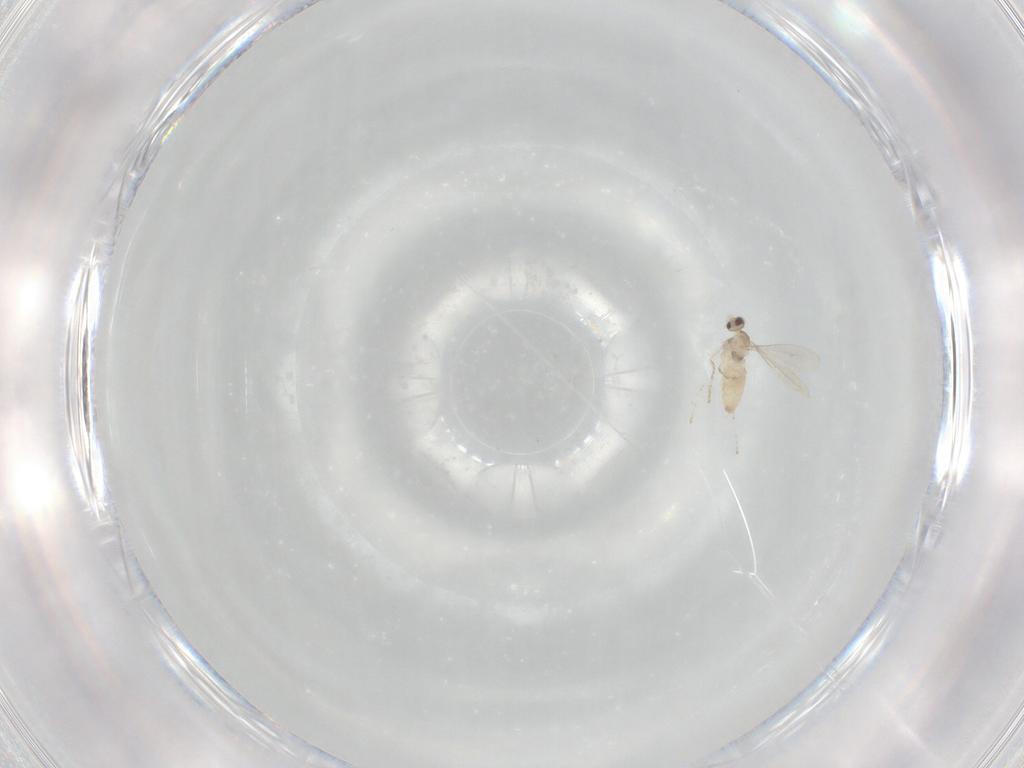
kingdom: Animalia
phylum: Arthropoda
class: Insecta
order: Diptera
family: Cecidomyiidae
